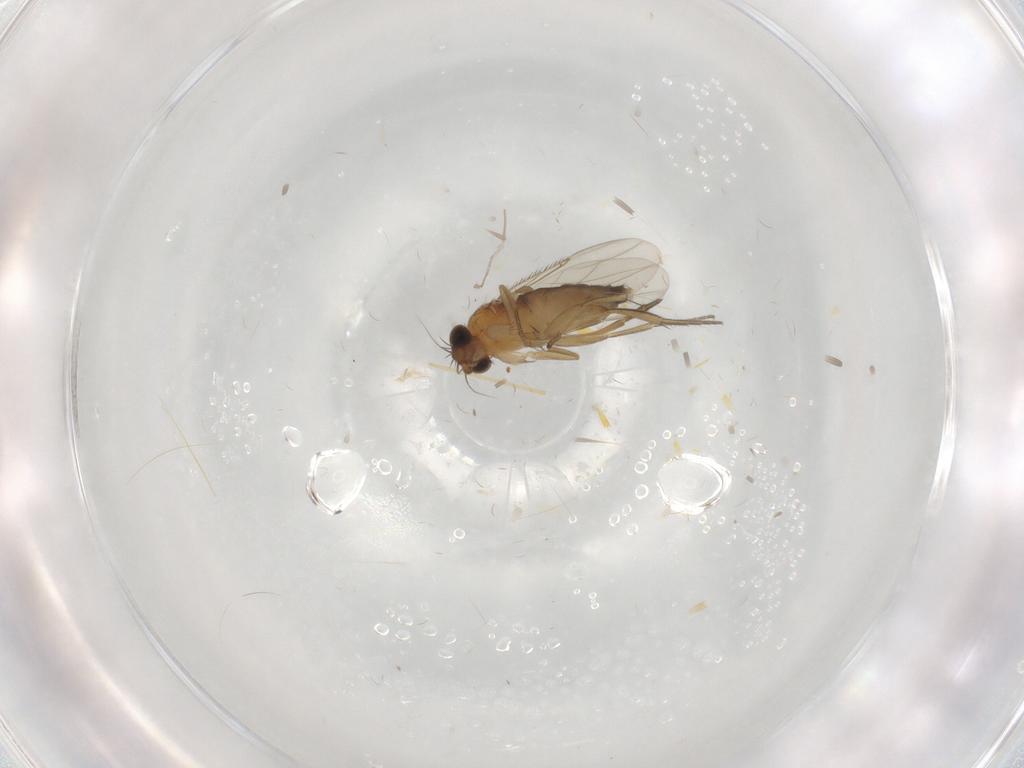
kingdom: Animalia
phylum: Arthropoda
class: Insecta
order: Diptera
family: Phoridae
